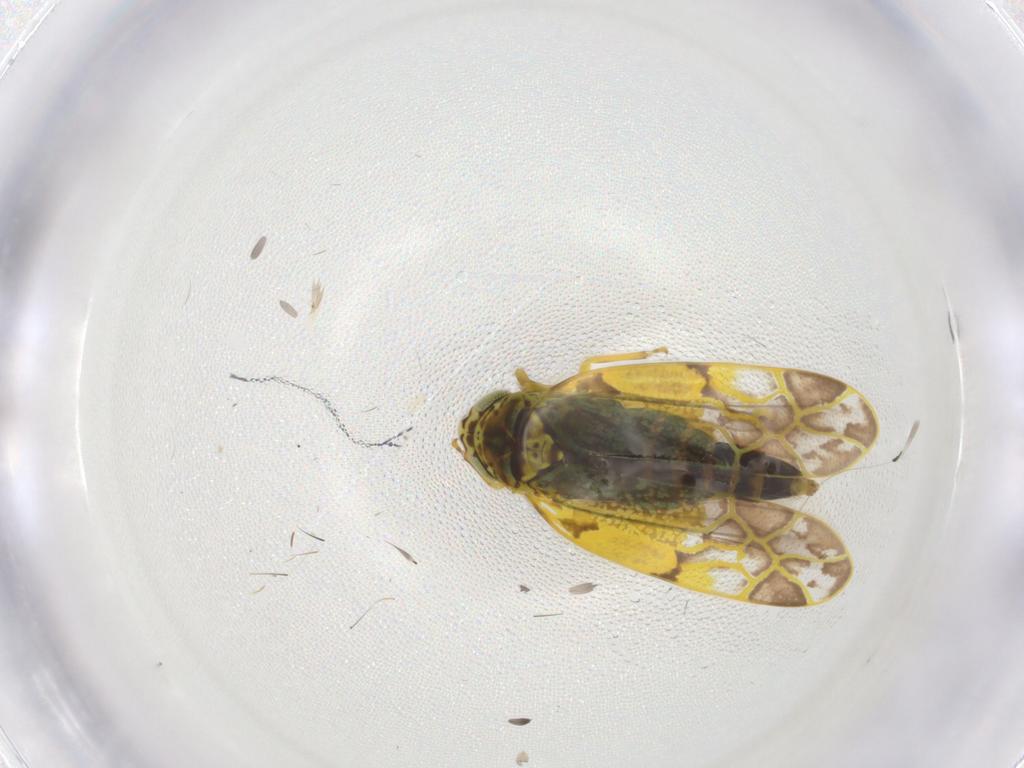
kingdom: Animalia
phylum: Arthropoda
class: Insecta
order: Hemiptera
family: Cicadellidae
